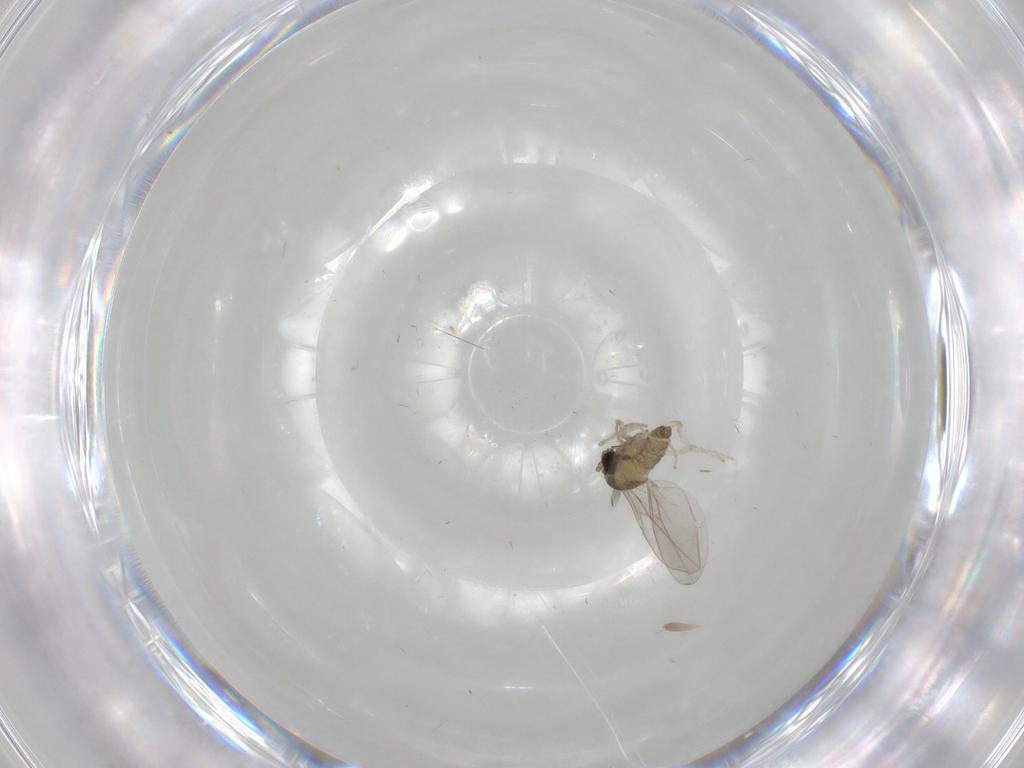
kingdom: Animalia
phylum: Arthropoda
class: Insecta
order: Diptera
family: Cecidomyiidae
